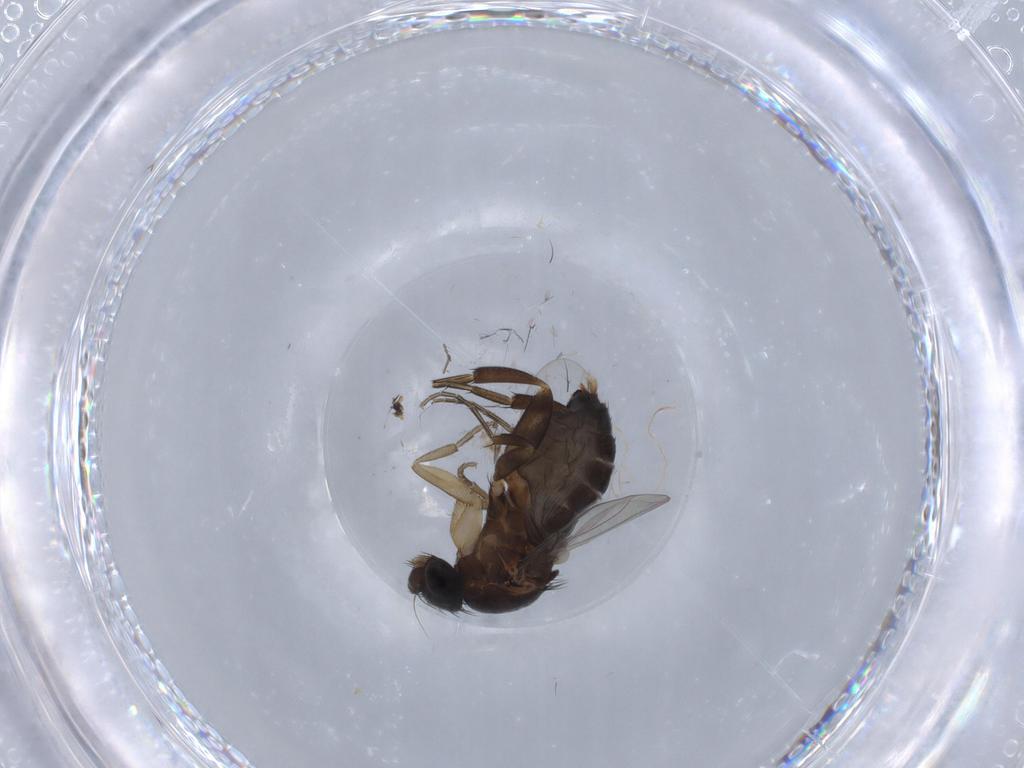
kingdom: Animalia
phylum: Arthropoda
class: Insecta
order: Diptera
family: Phoridae
